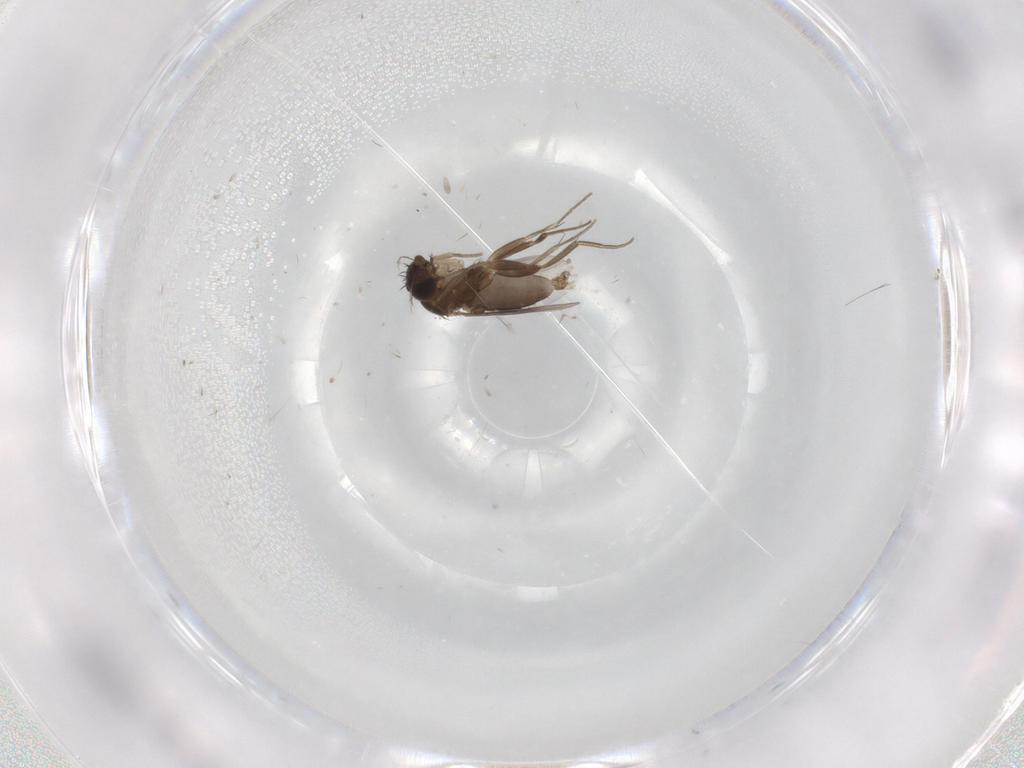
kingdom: Animalia
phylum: Arthropoda
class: Insecta
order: Diptera
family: Phoridae
